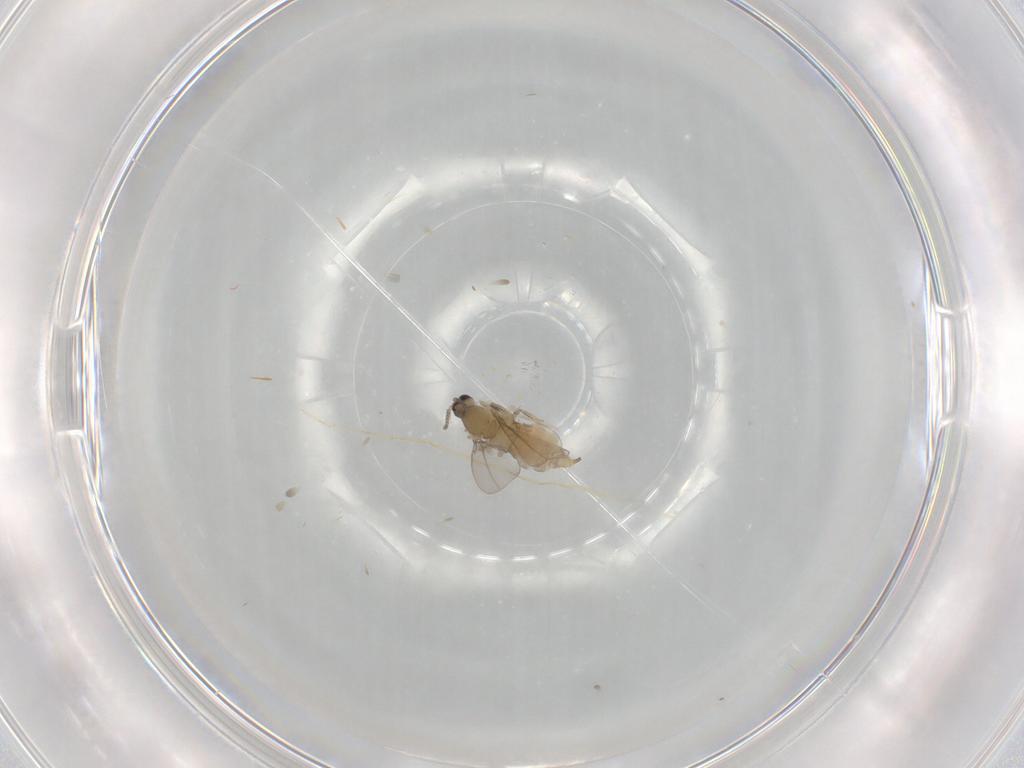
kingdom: Animalia
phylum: Arthropoda
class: Insecta
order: Diptera
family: Cecidomyiidae
